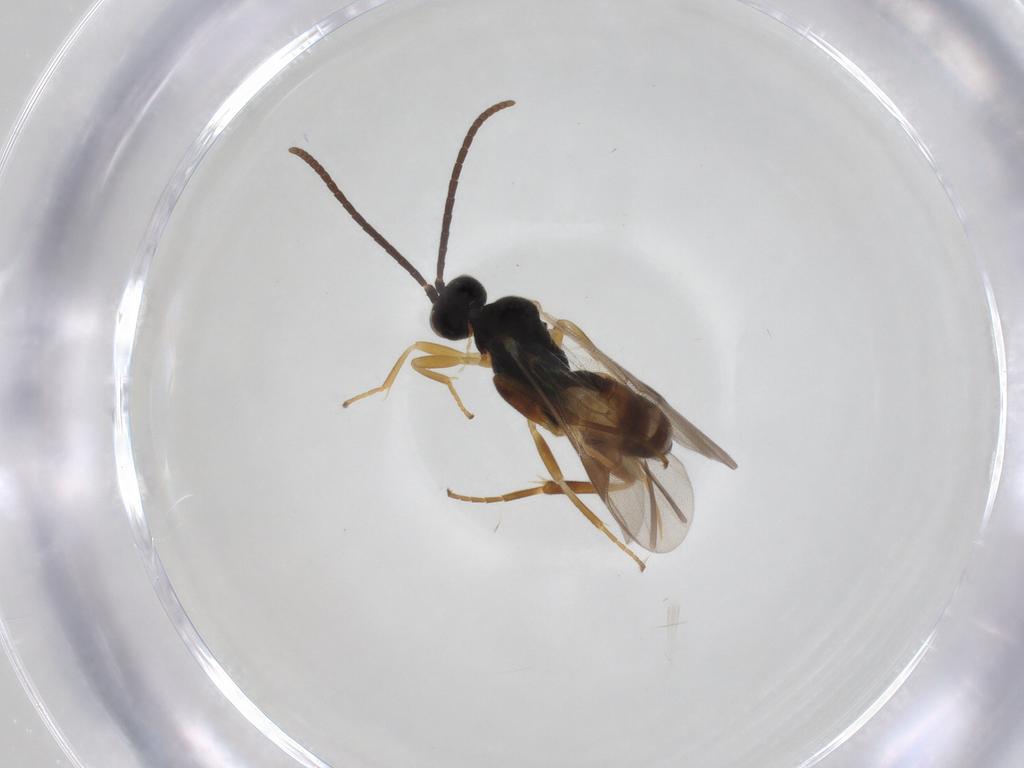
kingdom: Animalia
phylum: Arthropoda
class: Insecta
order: Hymenoptera
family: Braconidae
